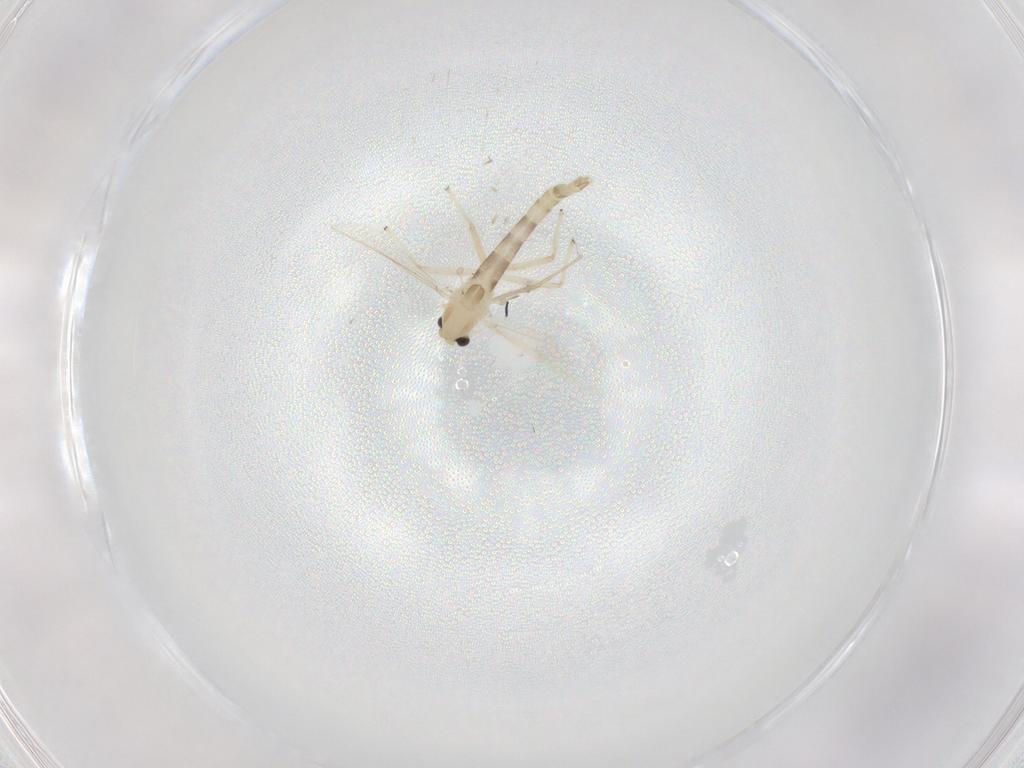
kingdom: Animalia
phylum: Arthropoda
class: Insecta
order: Diptera
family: Chironomidae
